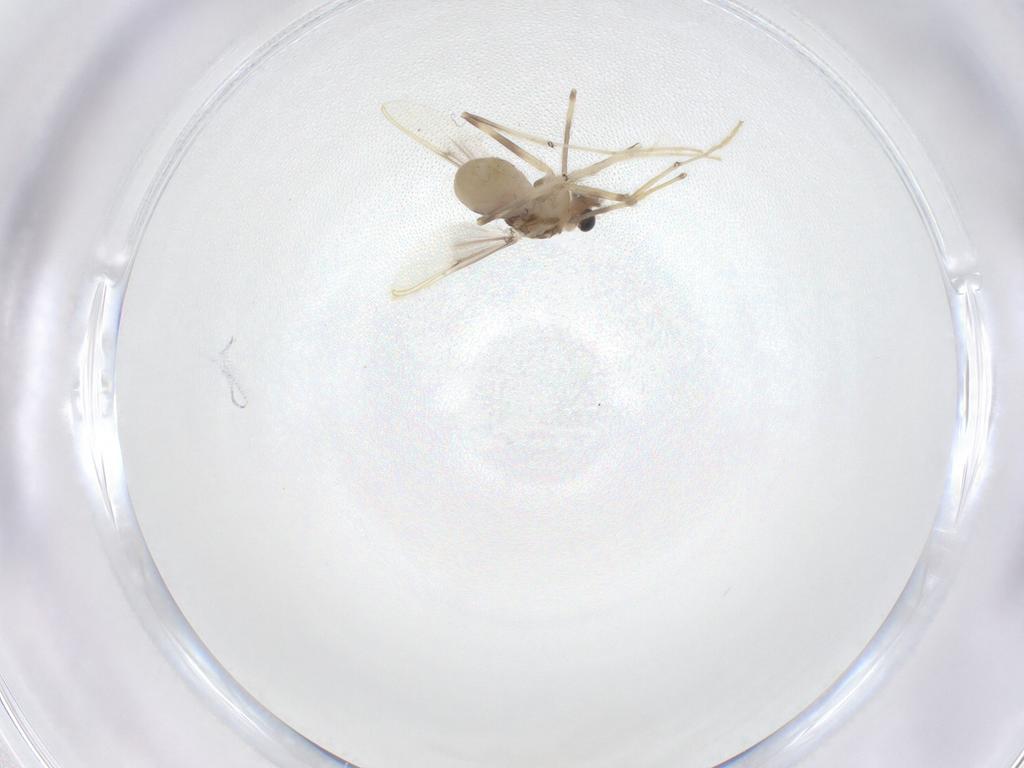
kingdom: Animalia
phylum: Arthropoda
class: Insecta
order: Diptera
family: Chironomidae
